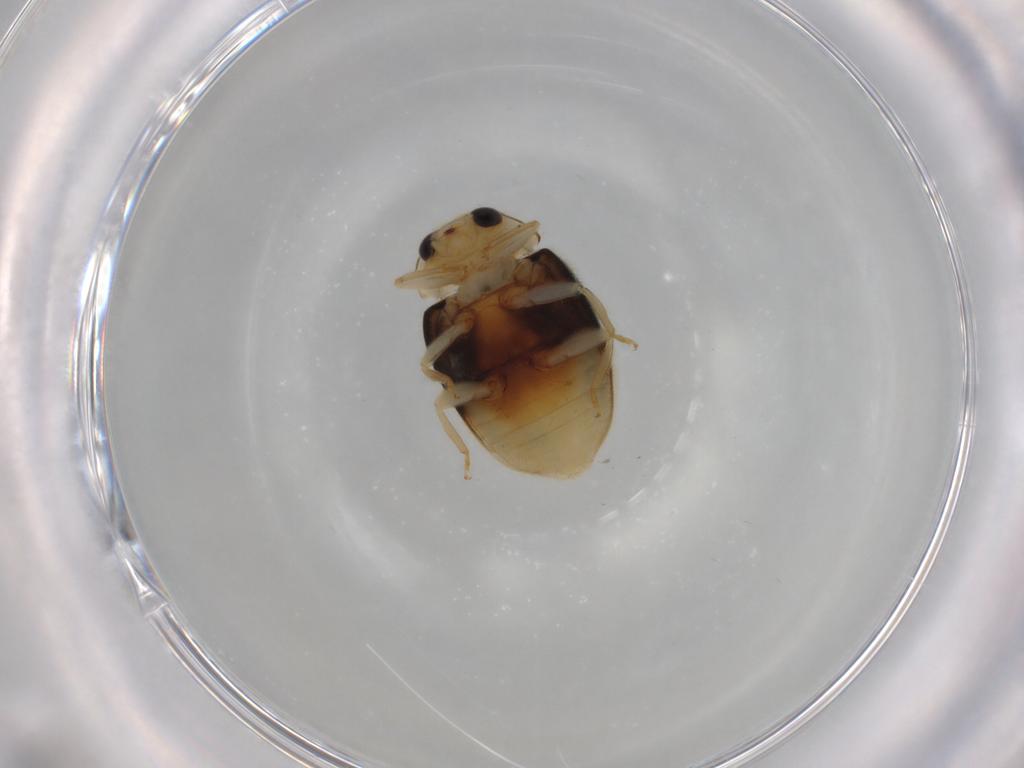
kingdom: Animalia
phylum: Arthropoda
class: Insecta
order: Coleoptera
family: Coccinellidae
